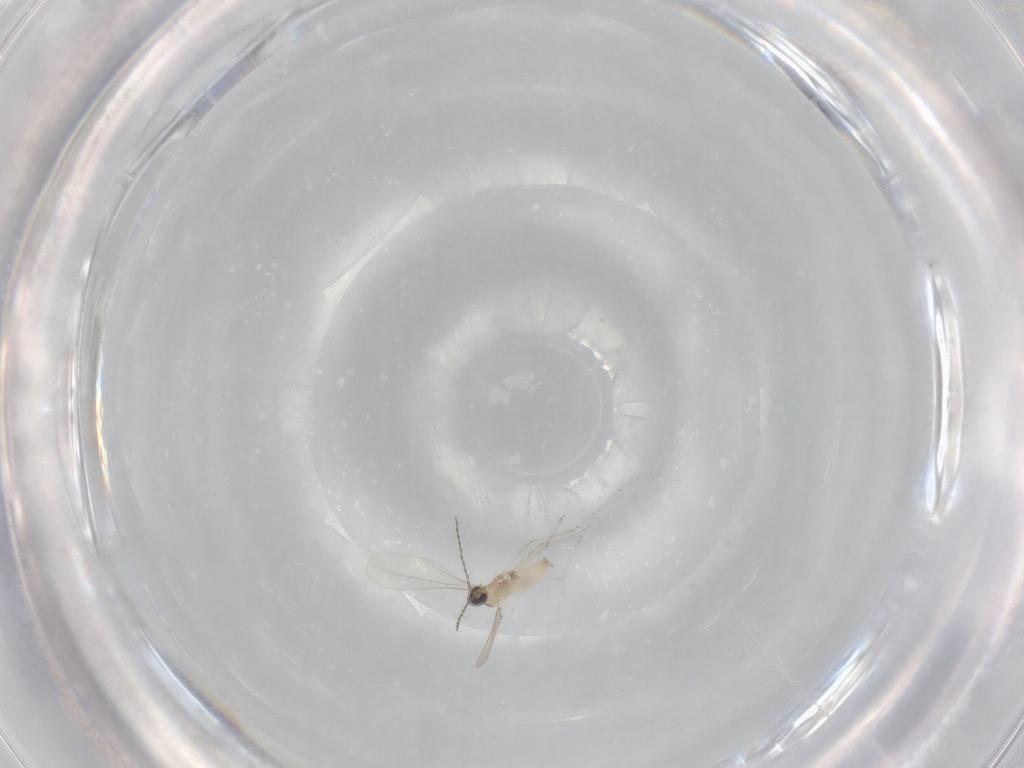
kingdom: Animalia
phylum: Arthropoda
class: Insecta
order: Diptera
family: Cecidomyiidae
